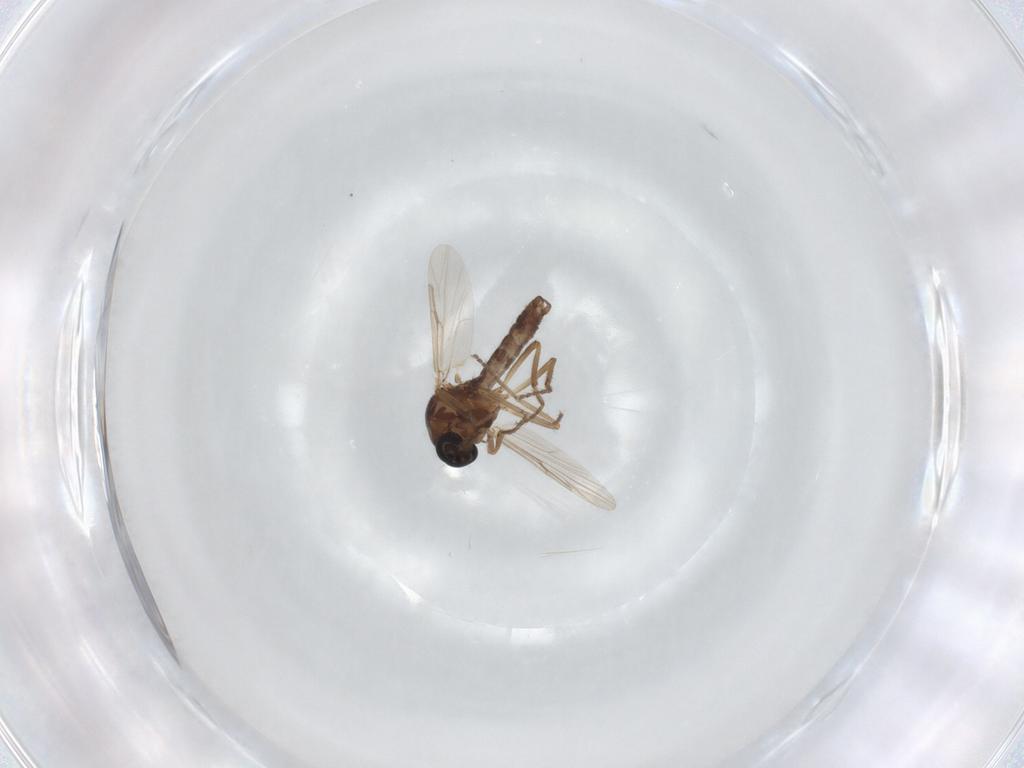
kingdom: Animalia
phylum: Arthropoda
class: Insecta
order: Diptera
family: Ceratopogonidae
